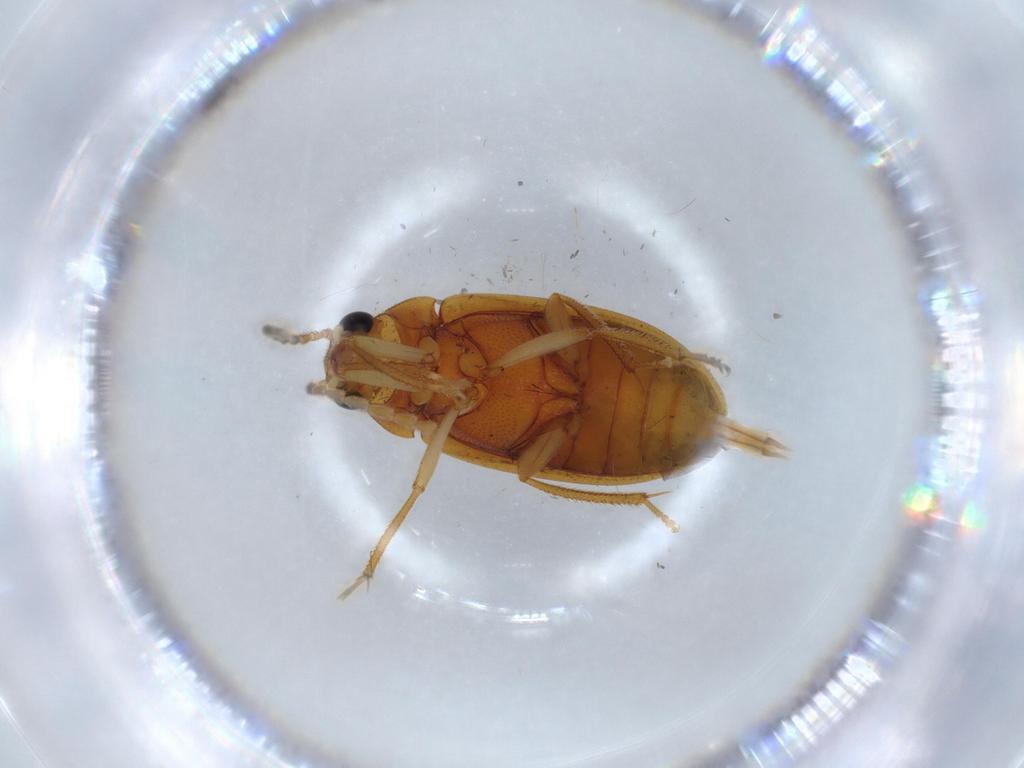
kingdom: Animalia
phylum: Arthropoda
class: Insecta
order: Coleoptera
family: Ptilodactylidae
